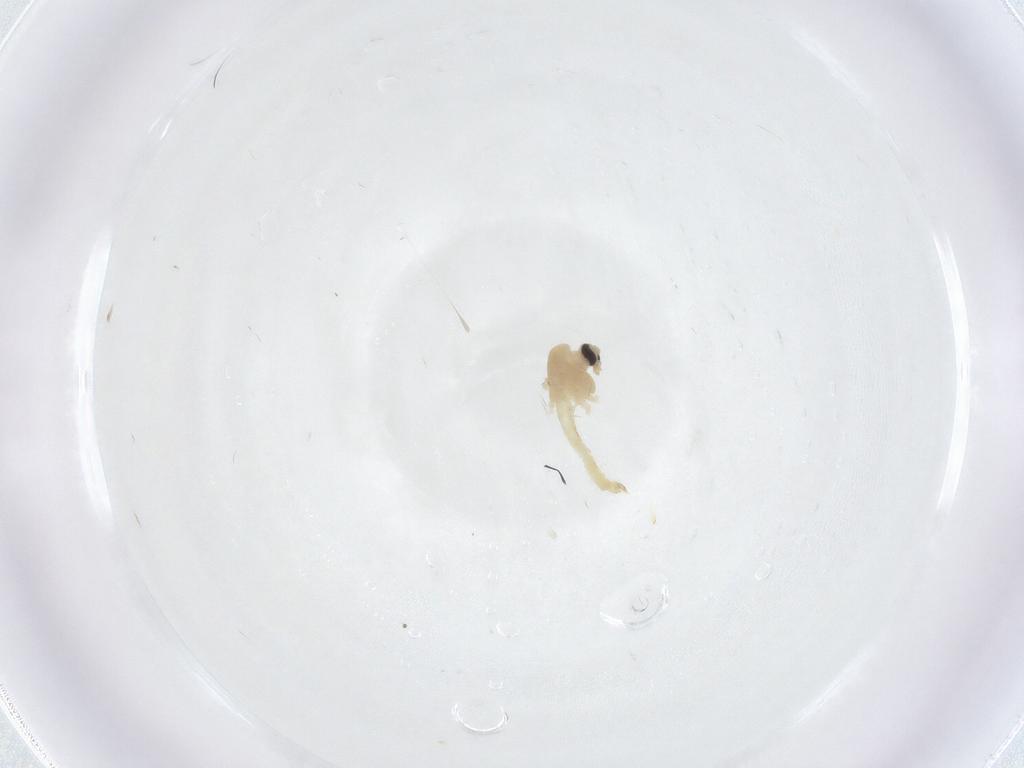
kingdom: Animalia
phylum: Arthropoda
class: Insecta
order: Diptera
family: Chironomidae
